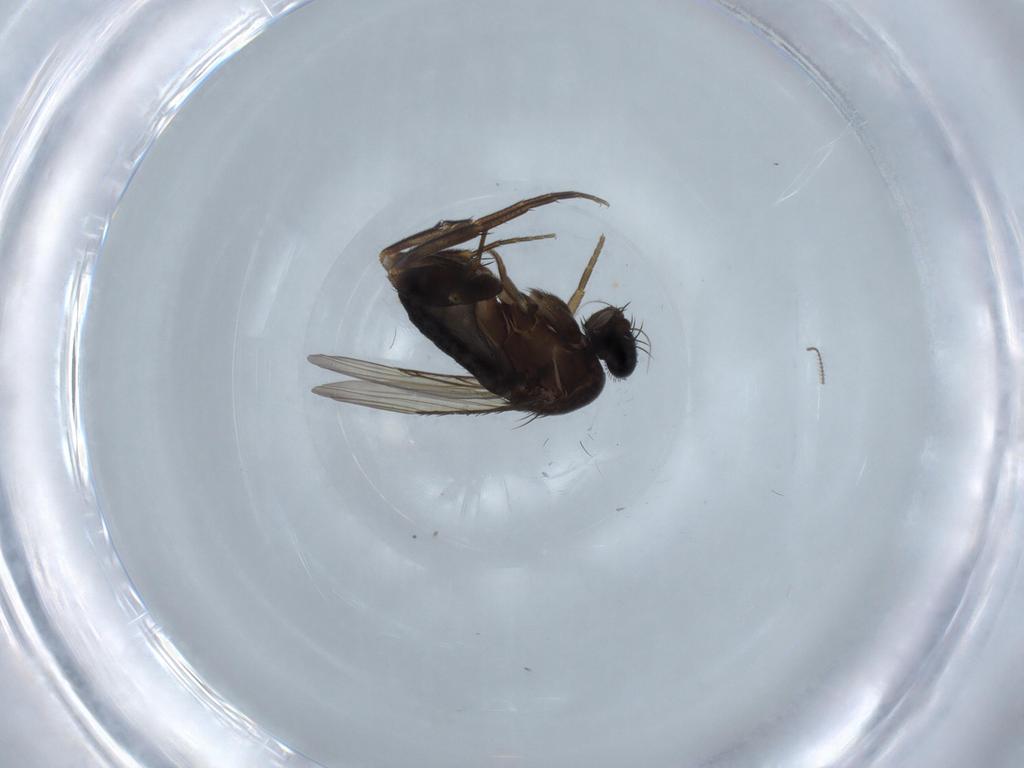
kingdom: Animalia
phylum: Arthropoda
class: Insecta
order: Diptera
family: Phoridae
